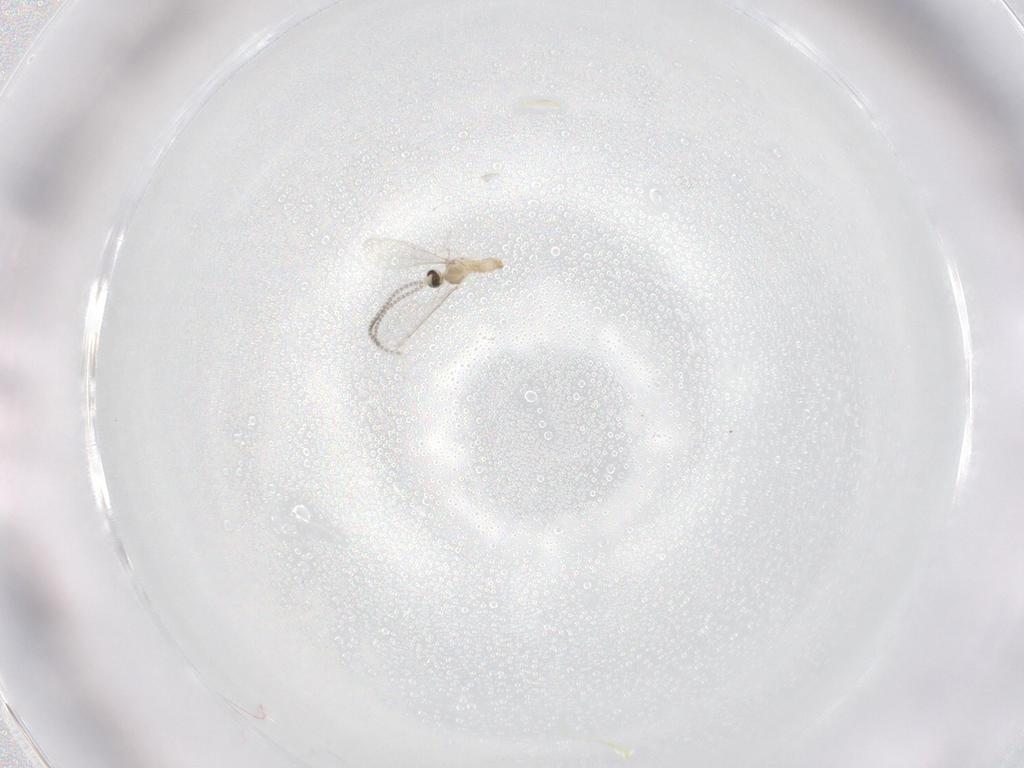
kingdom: Animalia
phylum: Arthropoda
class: Insecta
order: Diptera
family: Cecidomyiidae
